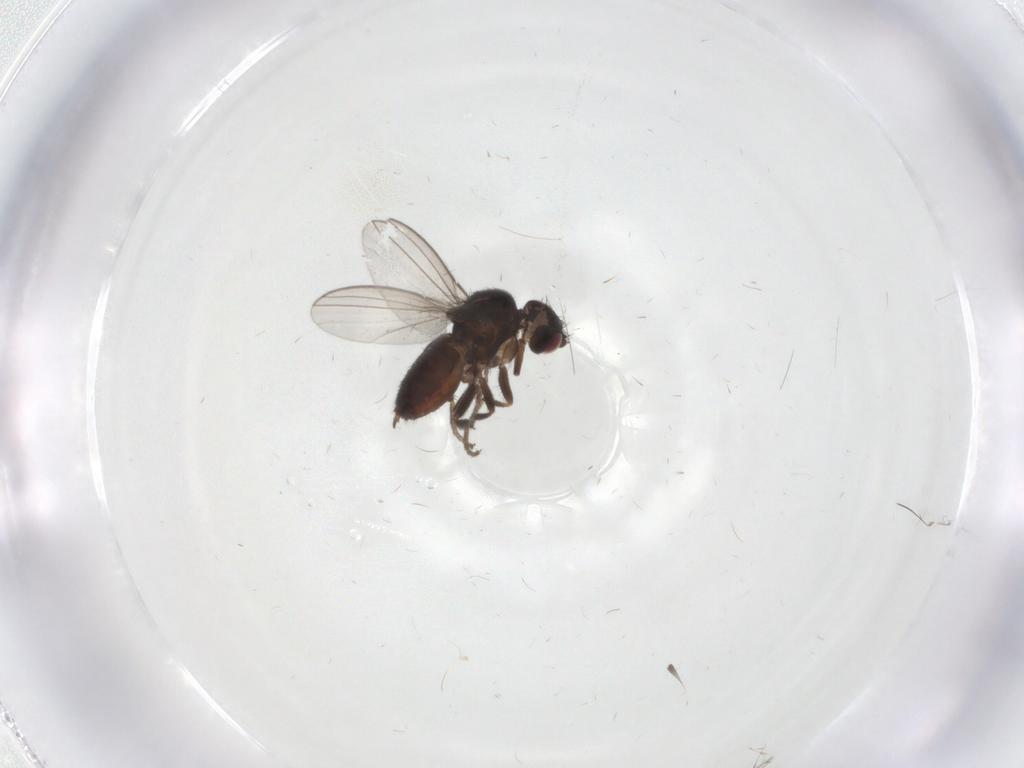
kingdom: Animalia
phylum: Arthropoda
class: Insecta
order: Diptera
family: Milichiidae
